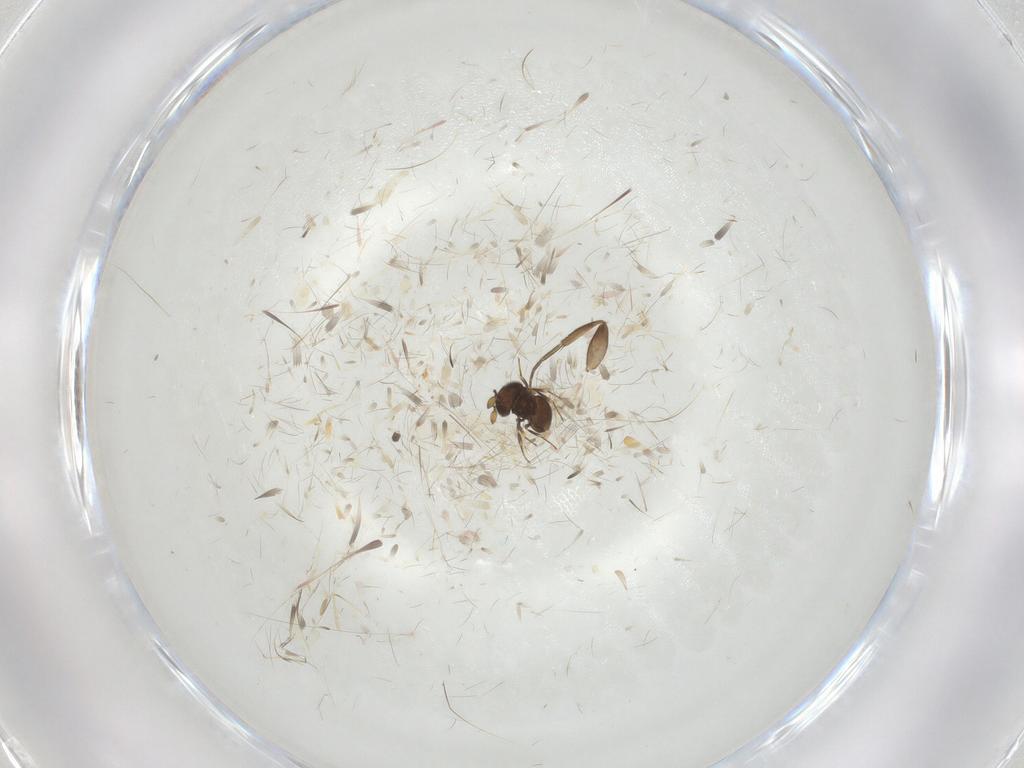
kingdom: Animalia
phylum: Arthropoda
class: Insecta
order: Hymenoptera
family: Scelionidae
